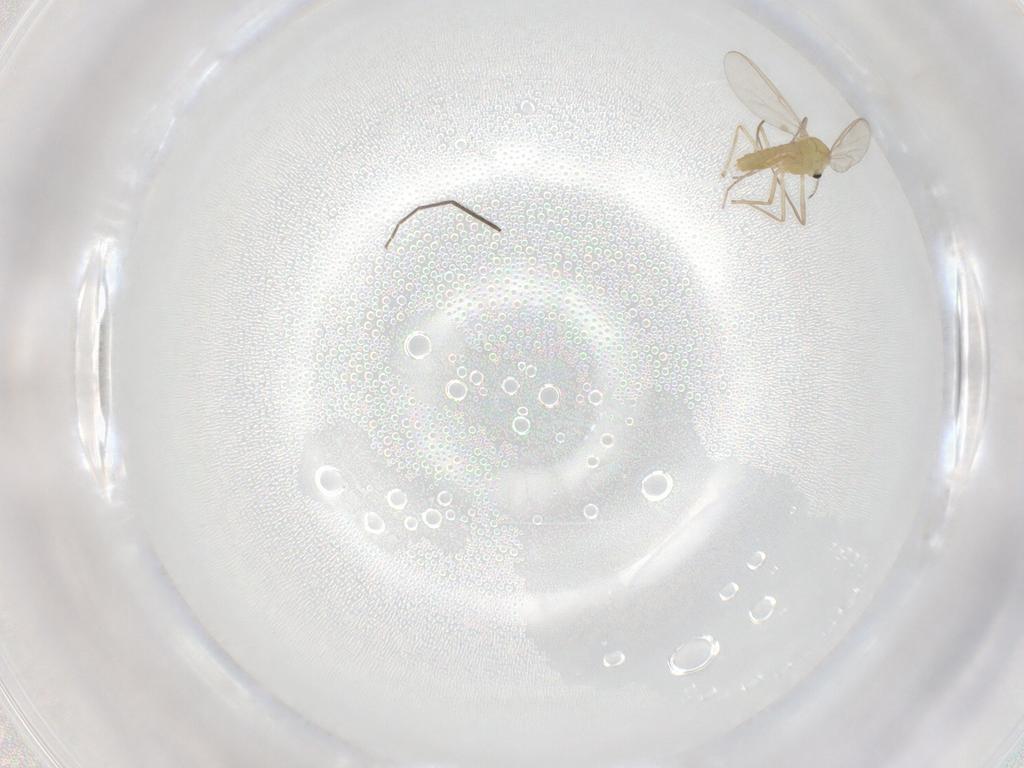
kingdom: Animalia
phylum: Arthropoda
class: Insecta
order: Diptera
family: Chironomidae
